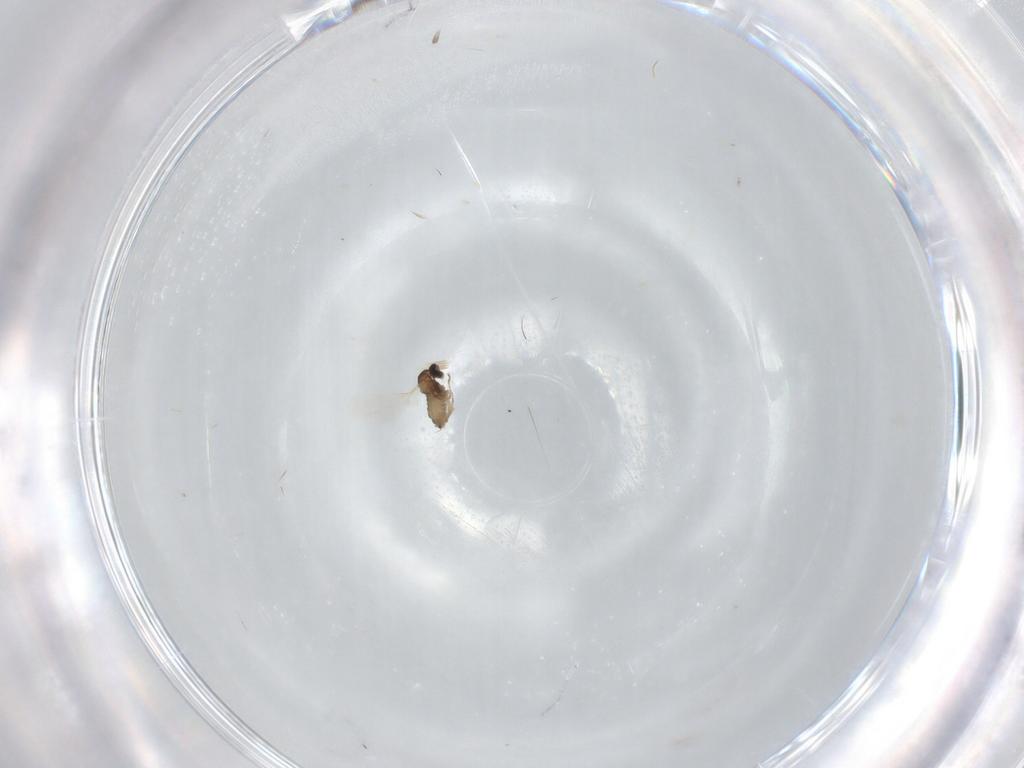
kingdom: Animalia
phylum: Arthropoda
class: Insecta
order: Diptera
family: Cecidomyiidae
